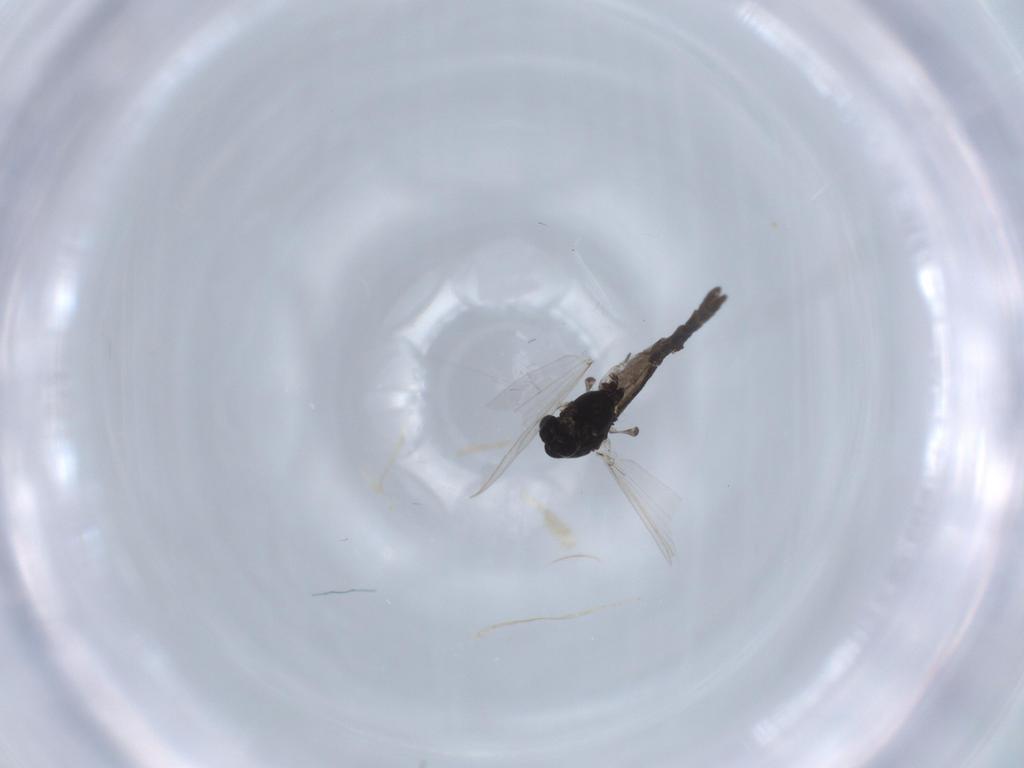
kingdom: Animalia
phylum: Arthropoda
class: Insecta
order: Diptera
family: Chironomidae
